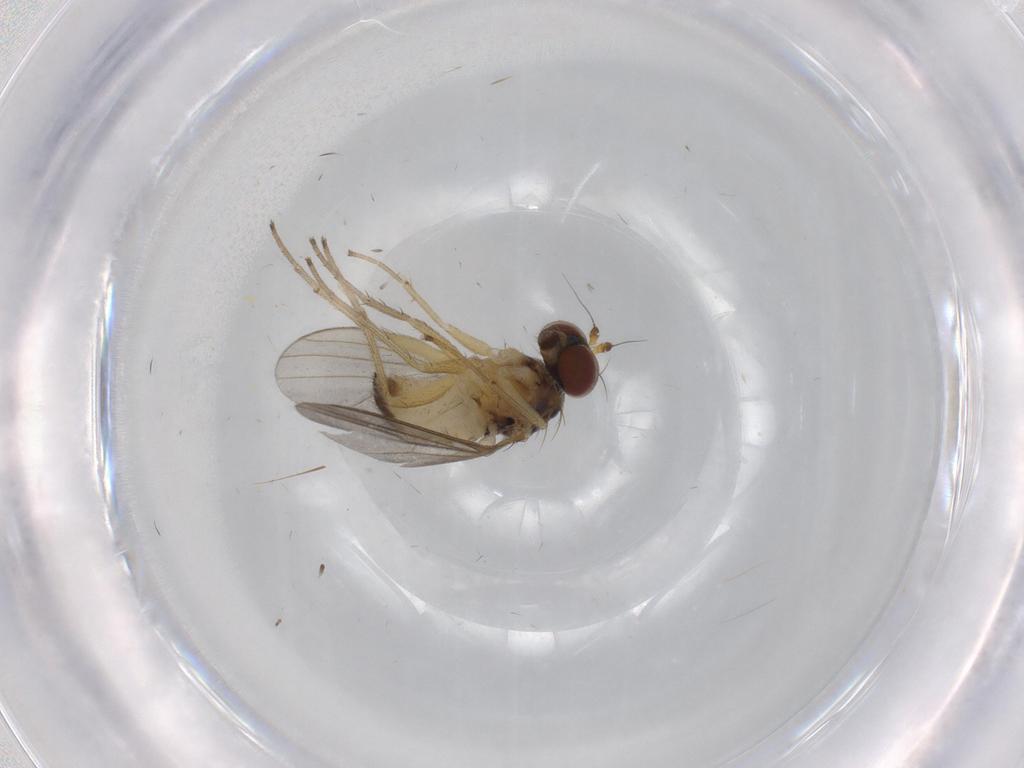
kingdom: Animalia
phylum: Arthropoda
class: Insecta
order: Diptera
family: Dolichopodidae
